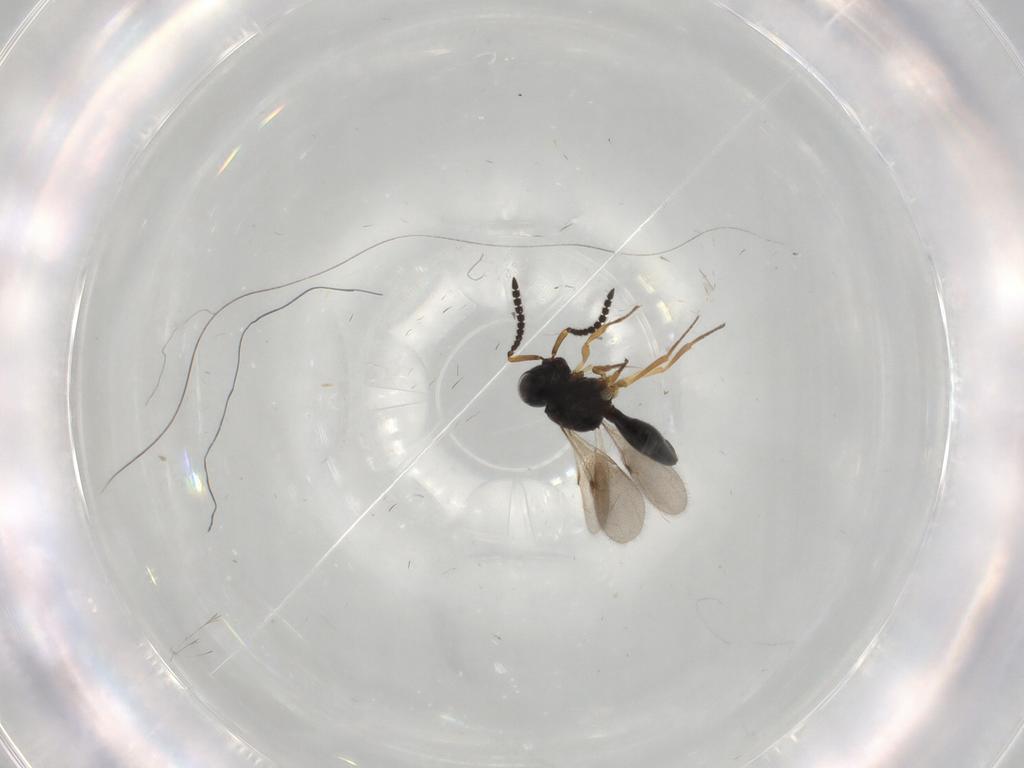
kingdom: Animalia
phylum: Arthropoda
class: Insecta
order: Hymenoptera
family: Scelionidae
